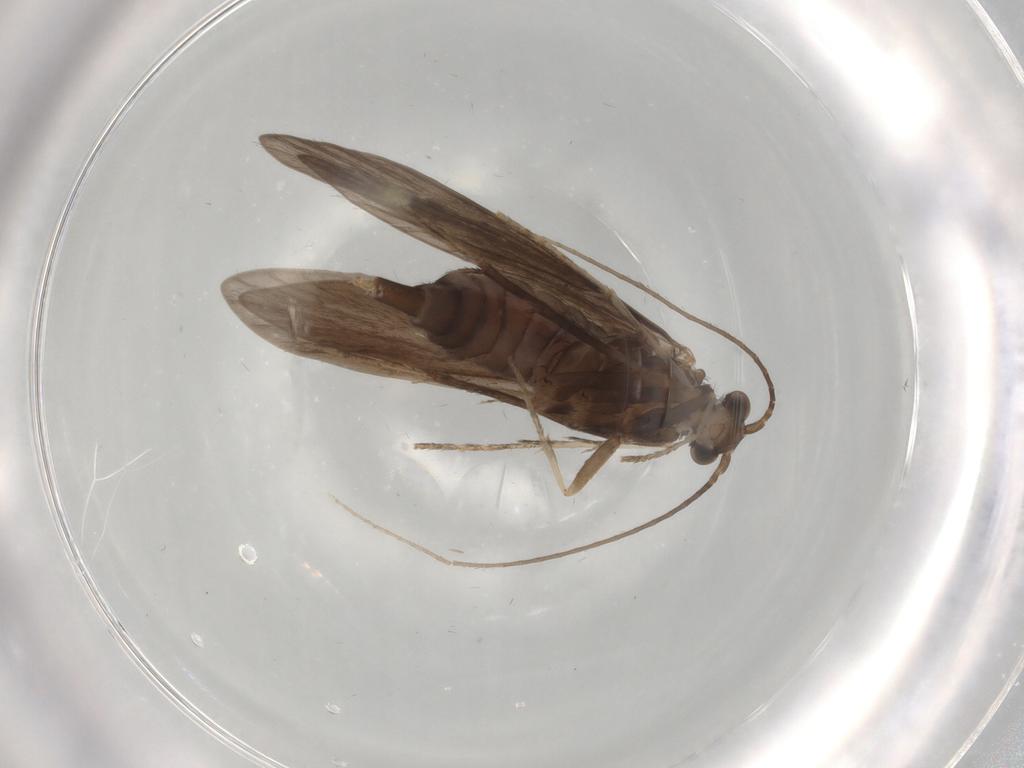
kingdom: Animalia
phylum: Arthropoda
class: Insecta
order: Trichoptera
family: Xiphocentronidae
